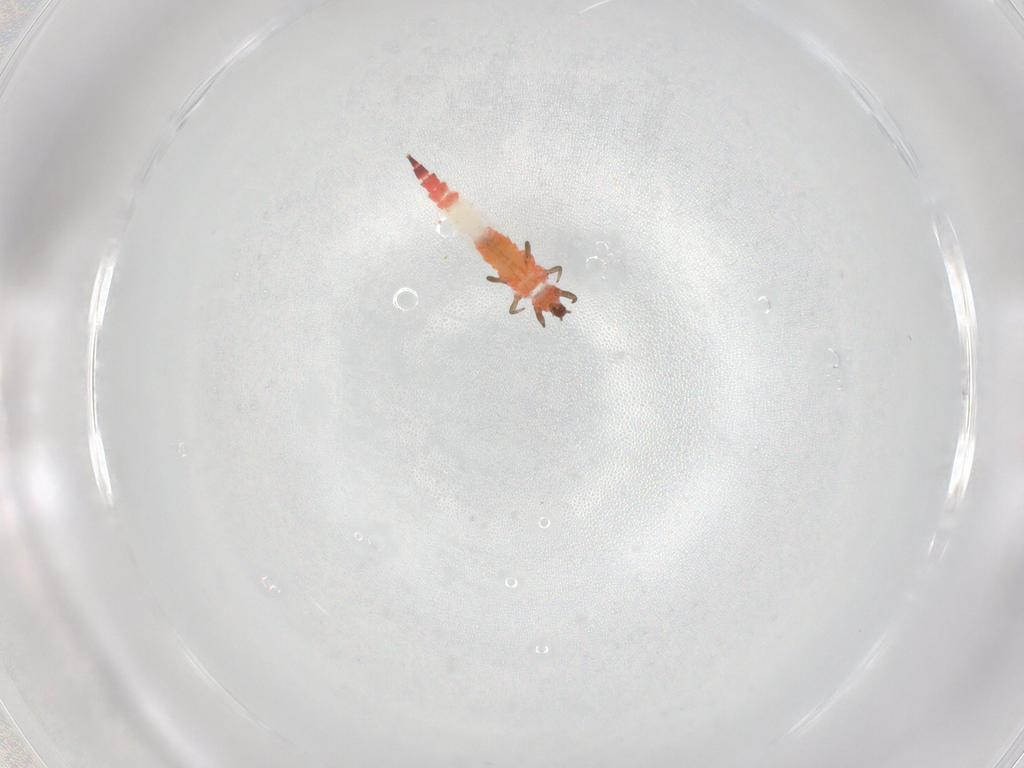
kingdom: Animalia
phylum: Arthropoda
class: Insecta
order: Thysanoptera
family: Phlaeothripidae
